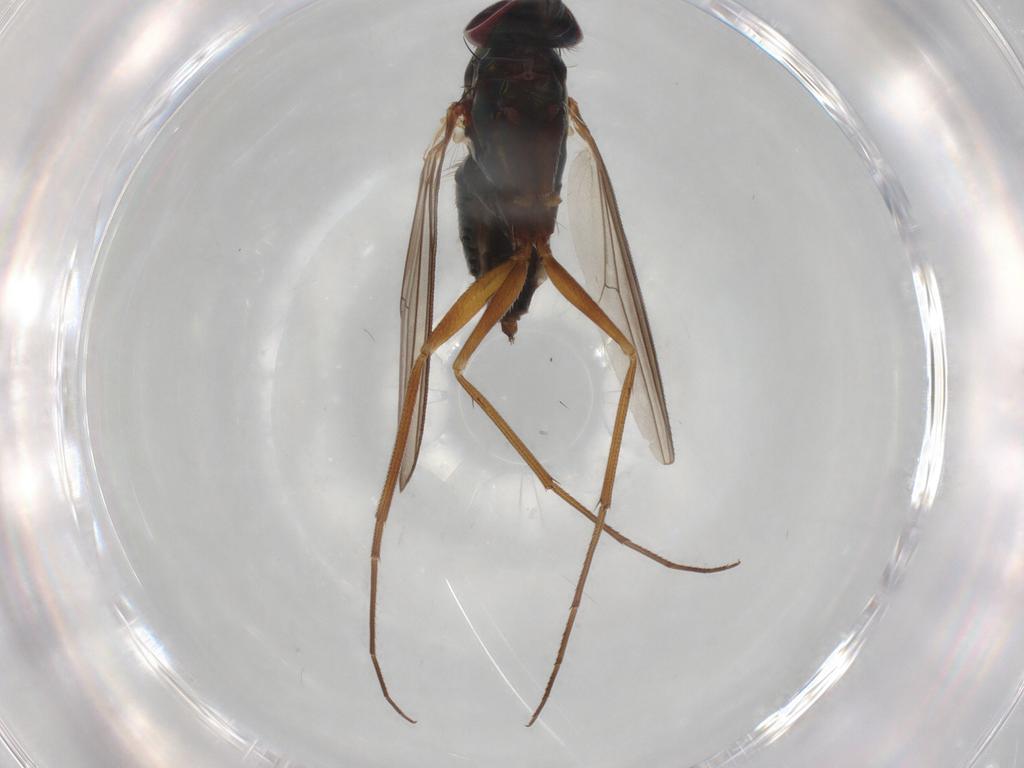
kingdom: Animalia
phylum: Arthropoda
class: Insecta
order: Diptera
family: Dolichopodidae
